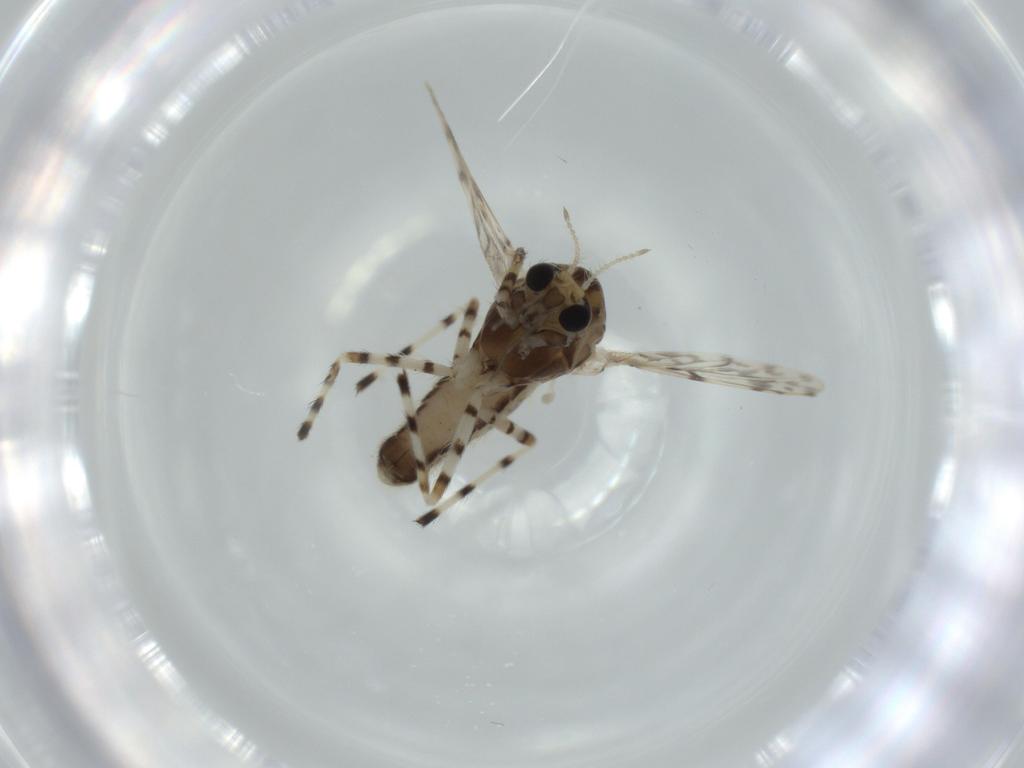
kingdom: Animalia
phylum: Arthropoda
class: Insecta
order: Diptera
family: Chironomidae
